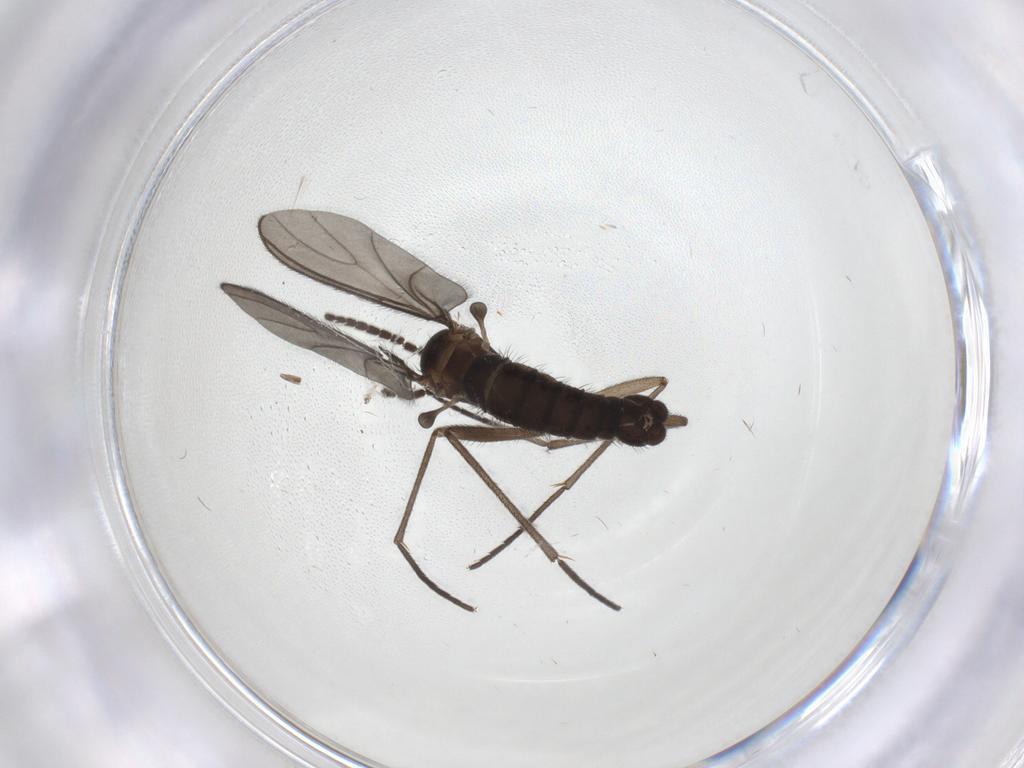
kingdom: Animalia
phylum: Arthropoda
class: Insecta
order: Diptera
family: Sciaridae
